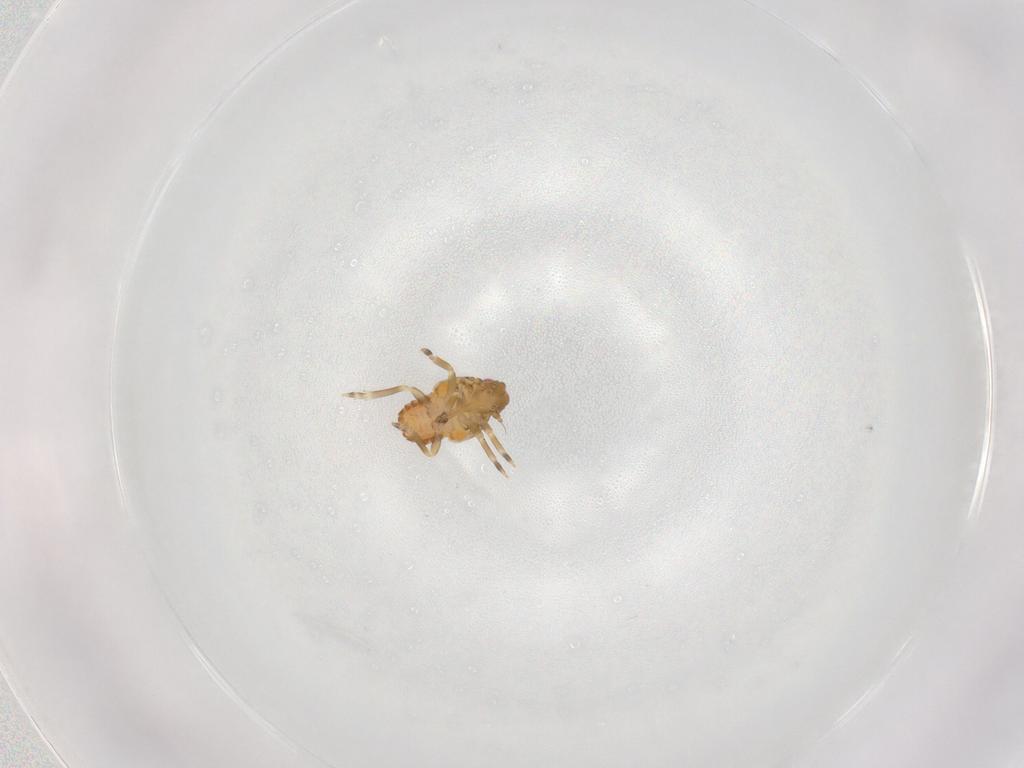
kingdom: Animalia
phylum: Arthropoda
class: Insecta
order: Hemiptera
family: Flatidae
